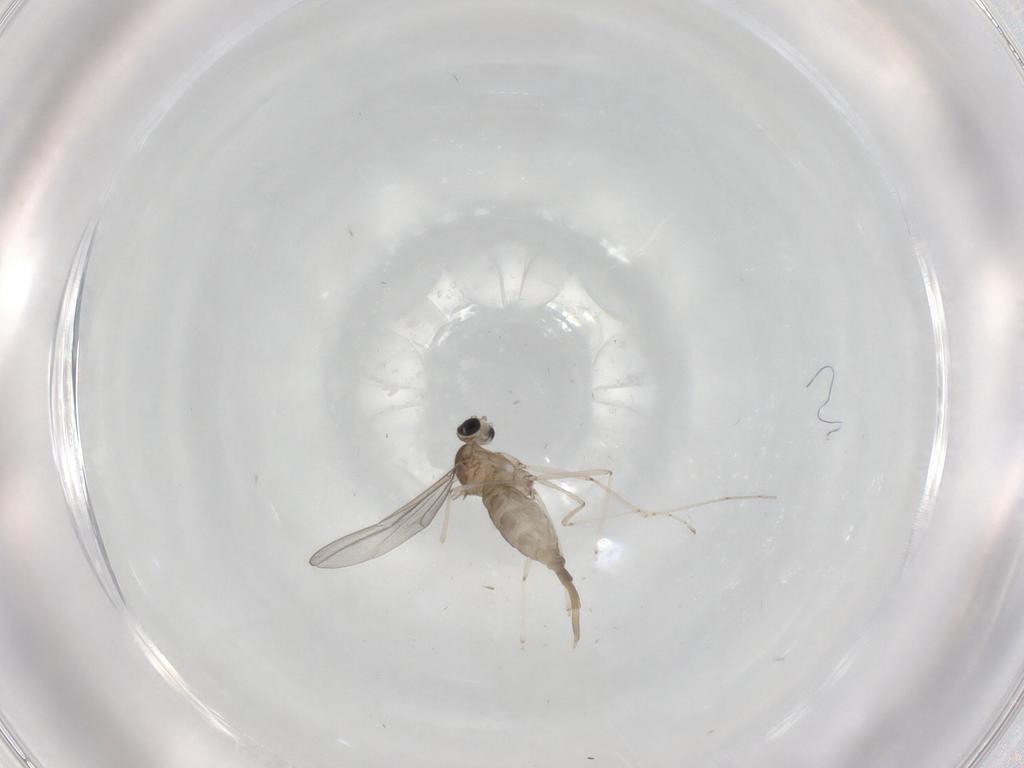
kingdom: Animalia
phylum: Arthropoda
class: Insecta
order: Diptera
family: Cecidomyiidae
